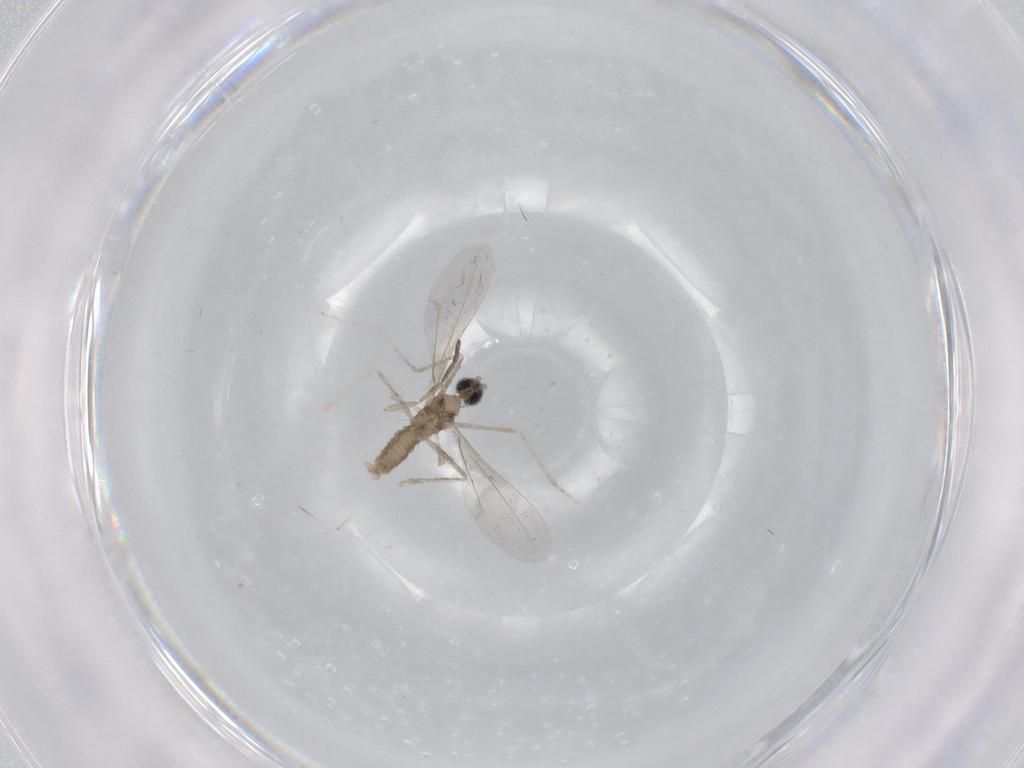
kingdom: Animalia
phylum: Arthropoda
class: Insecta
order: Diptera
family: Cecidomyiidae
